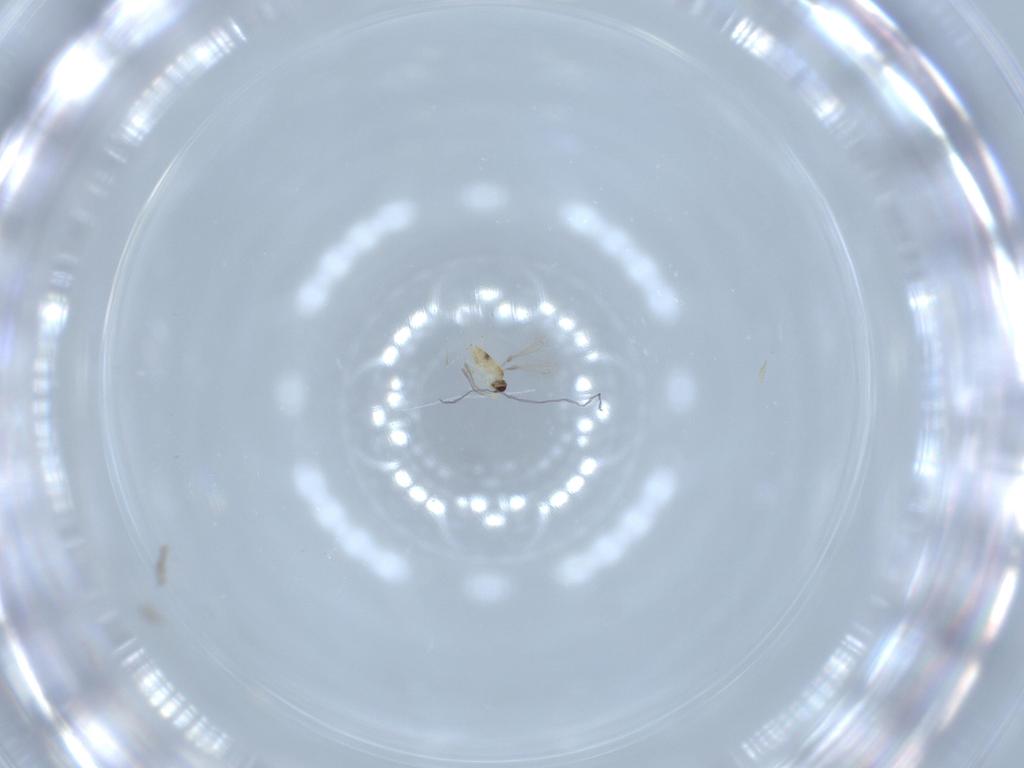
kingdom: Animalia
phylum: Arthropoda
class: Insecta
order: Hymenoptera
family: Mymaridae
